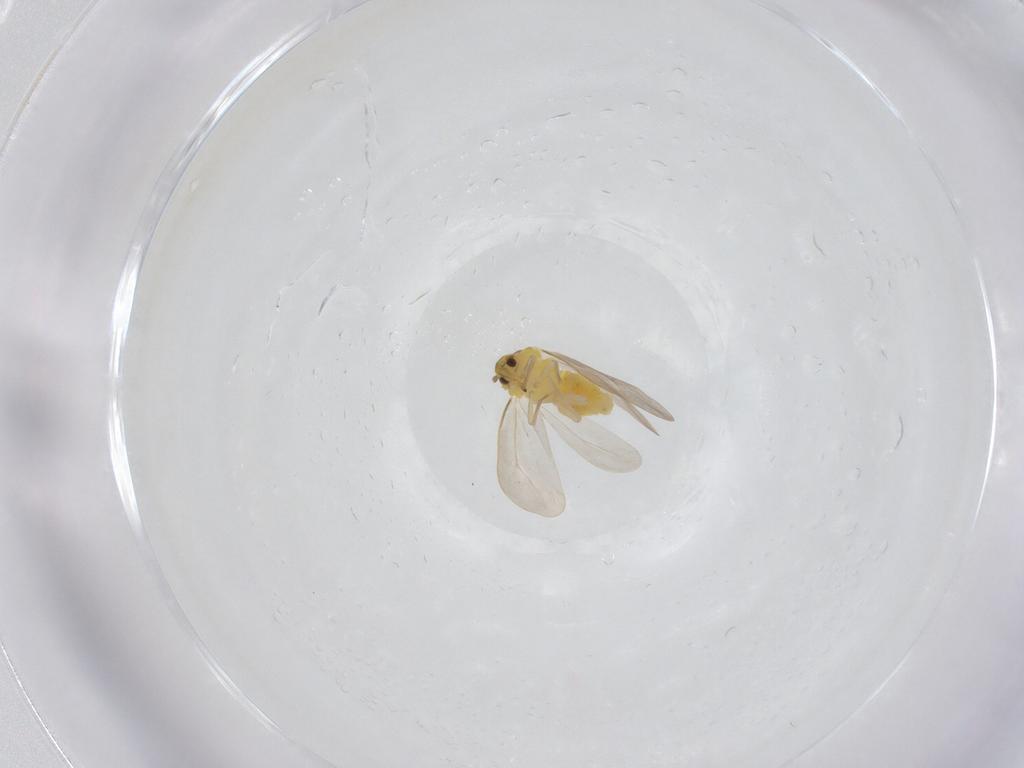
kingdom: Animalia
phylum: Arthropoda
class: Insecta
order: Hemiptera
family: Aleyrodidae
